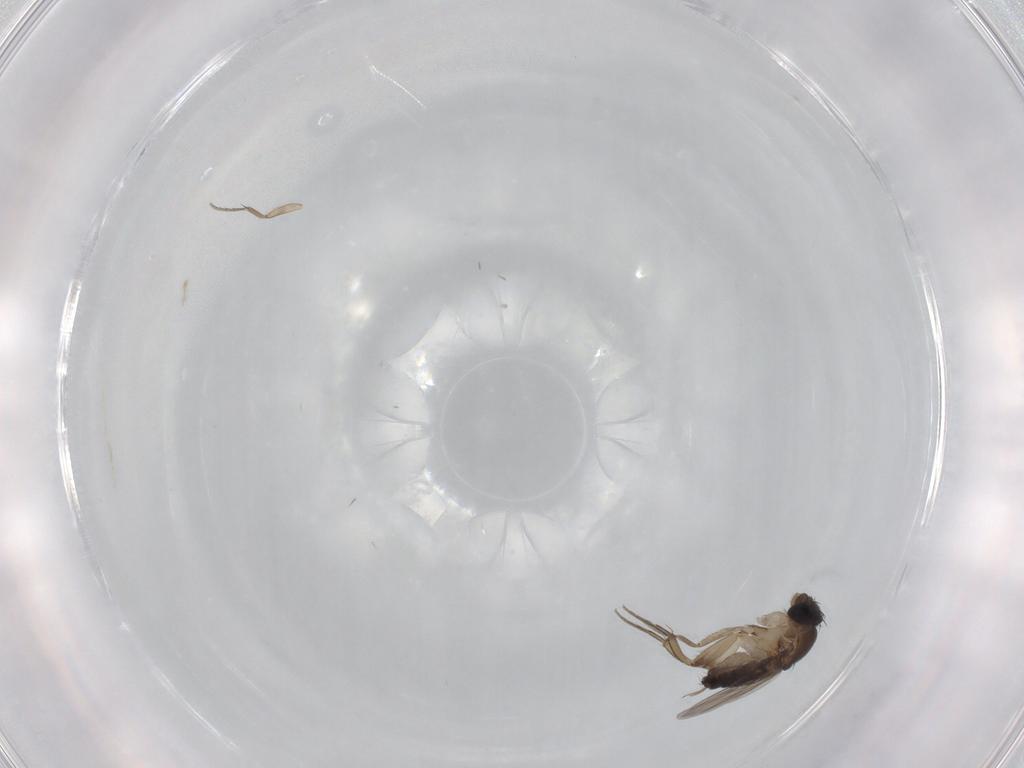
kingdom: Animalia
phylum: Arthropoda
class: Insecta
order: Diptera
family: Phoridae
